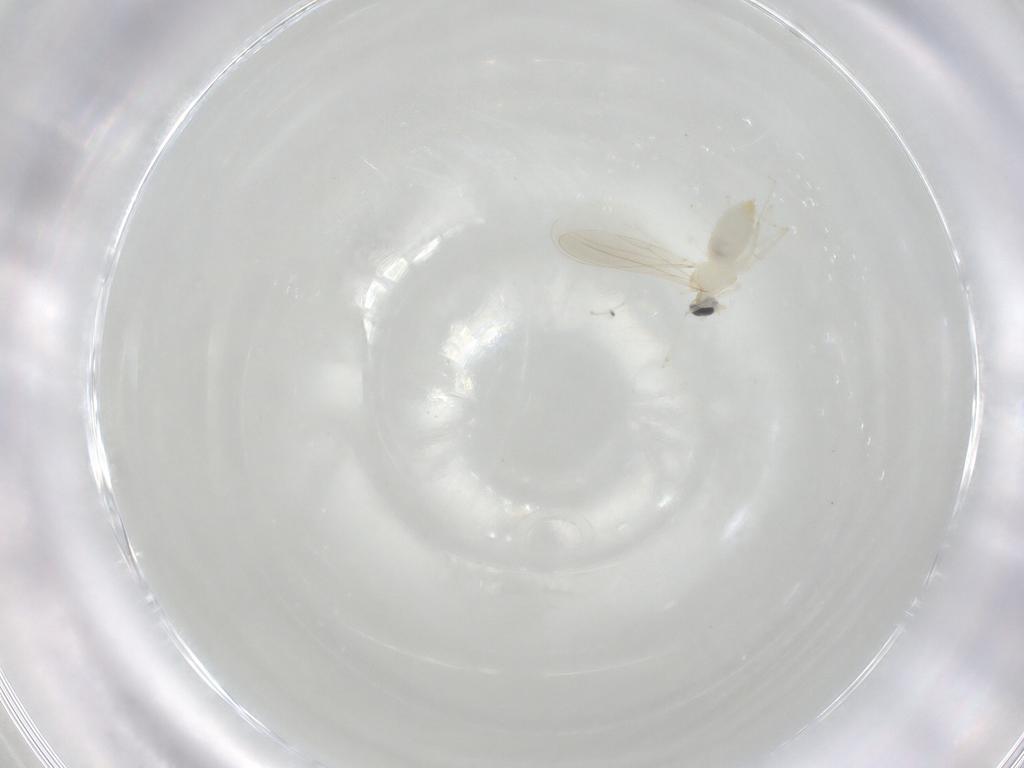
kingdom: Animalia
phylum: Arthropoda
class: Insecta
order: Diptera
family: Cecidomyiidae
